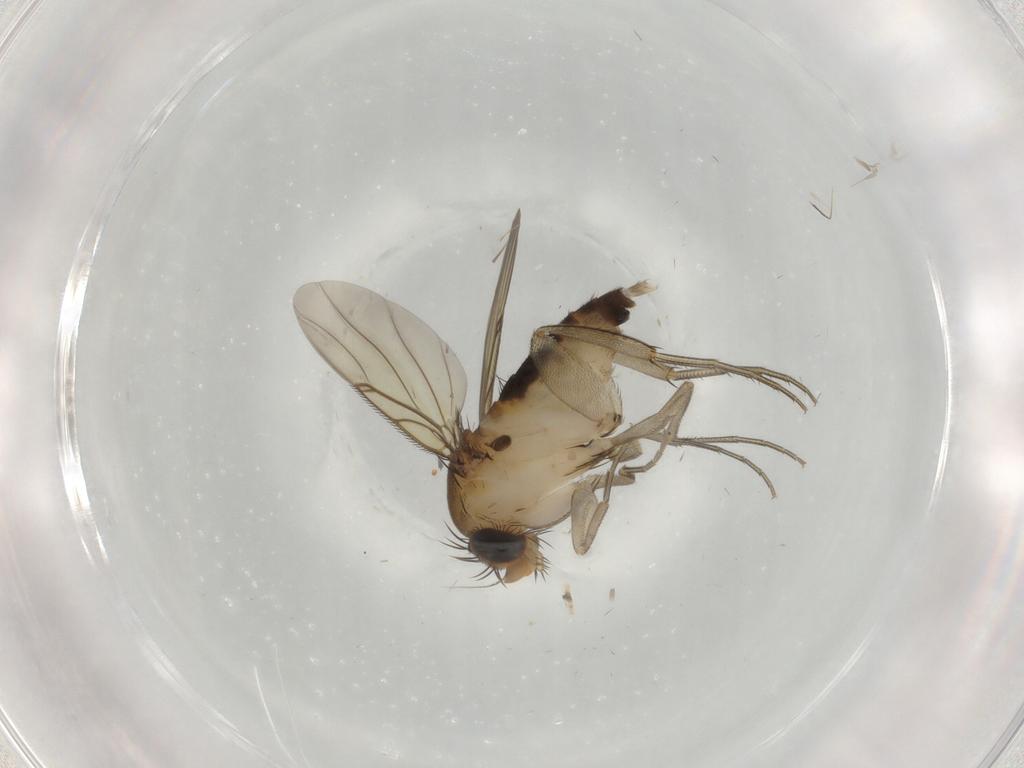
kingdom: Animalia
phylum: Arthropoda
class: Insecta
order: Diptera
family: Phoridae
